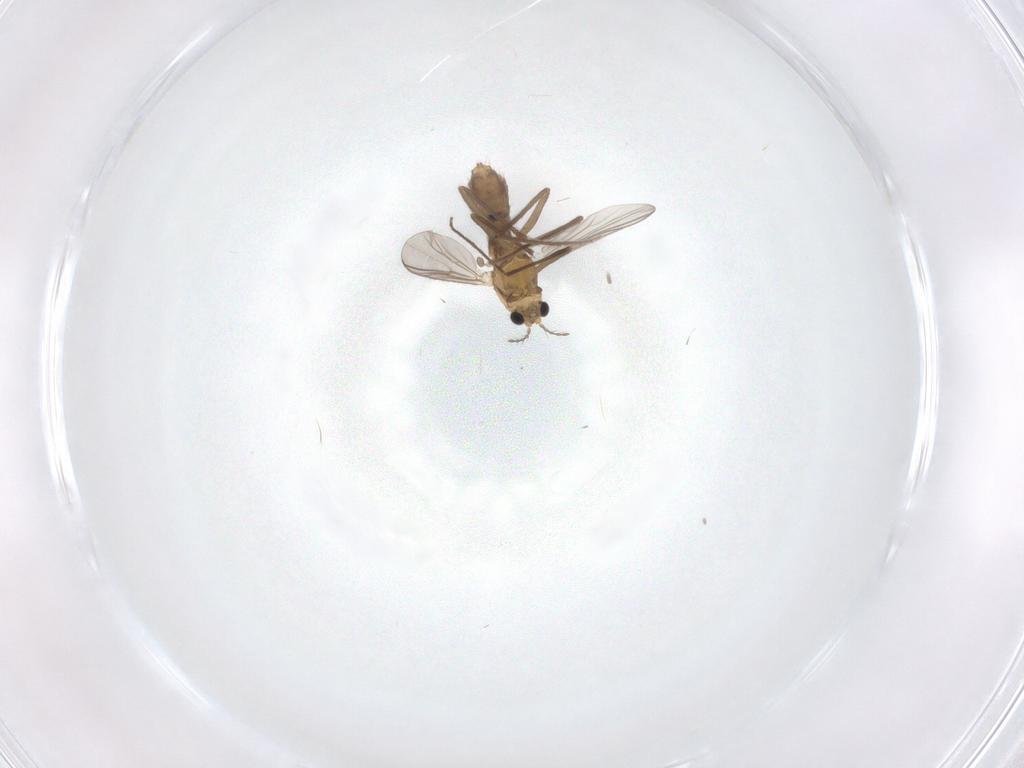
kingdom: Animalia
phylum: Arthropoda
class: Insecta
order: Diptera
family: Chironomidae
